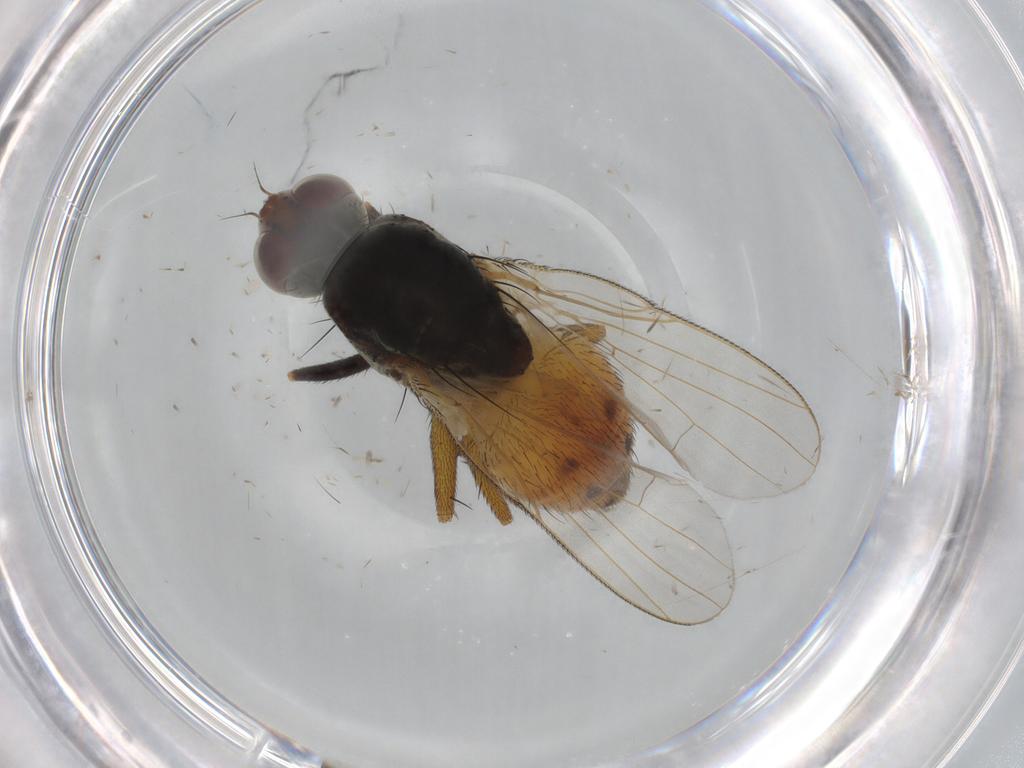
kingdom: Animalia
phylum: Arthropoda
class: Insecta
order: Diptera
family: Muscidae
